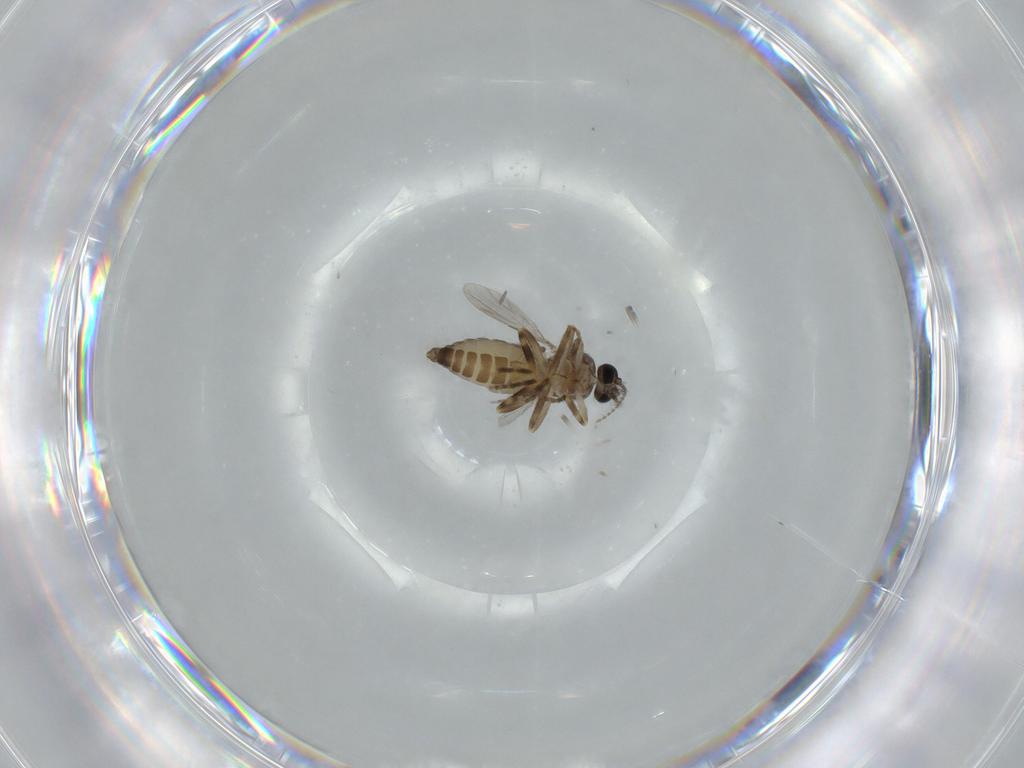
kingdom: Animalia
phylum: Arthropoda
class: Insecta
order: Diptera
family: Ceratopogonidae
